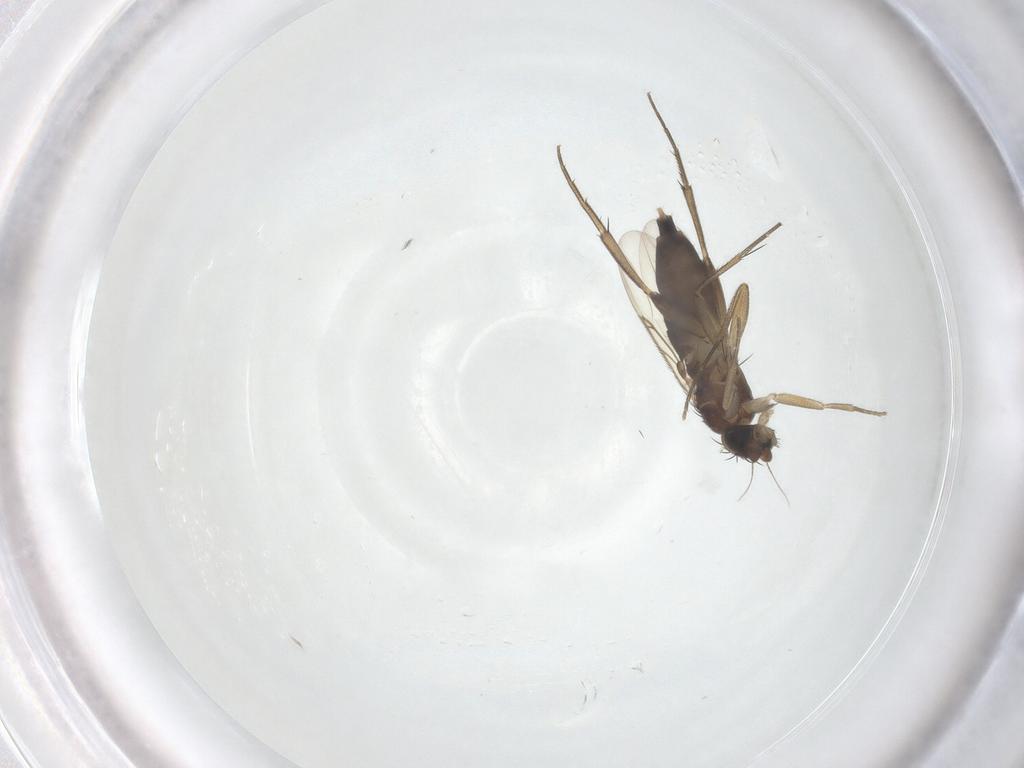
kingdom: Animalia
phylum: Arthropoda
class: Insecta
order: Diptera
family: Phoridae
